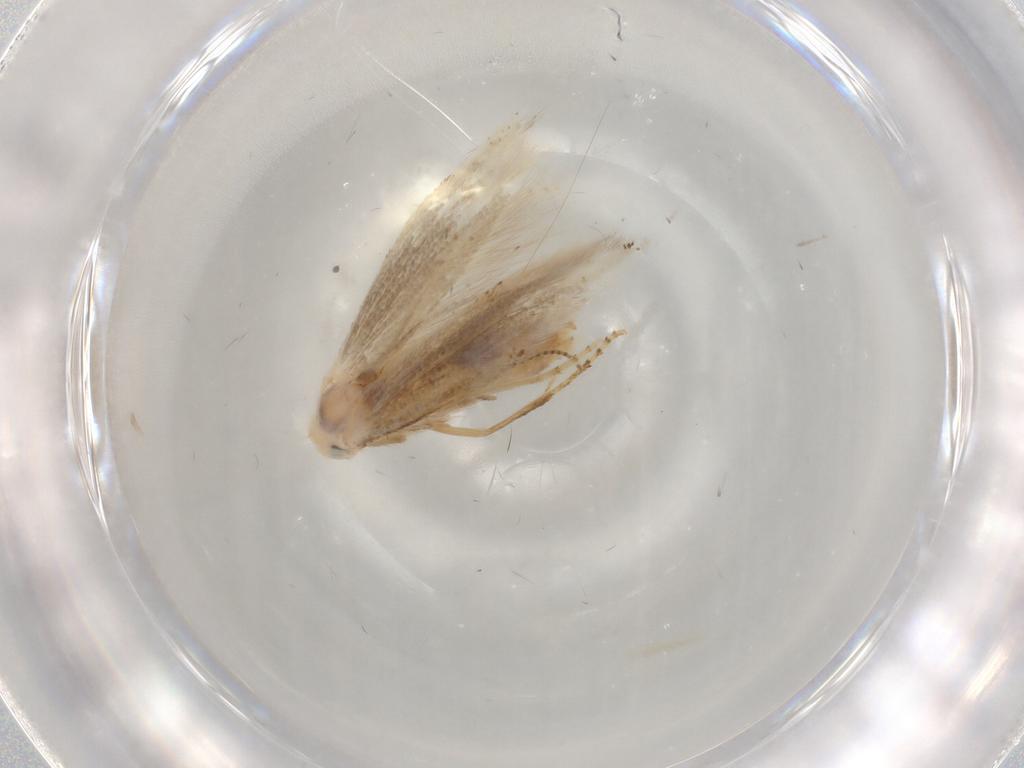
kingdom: Animalia
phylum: Arthropoda
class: Insecta
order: Lepidoptera
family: Bucculatricidae
